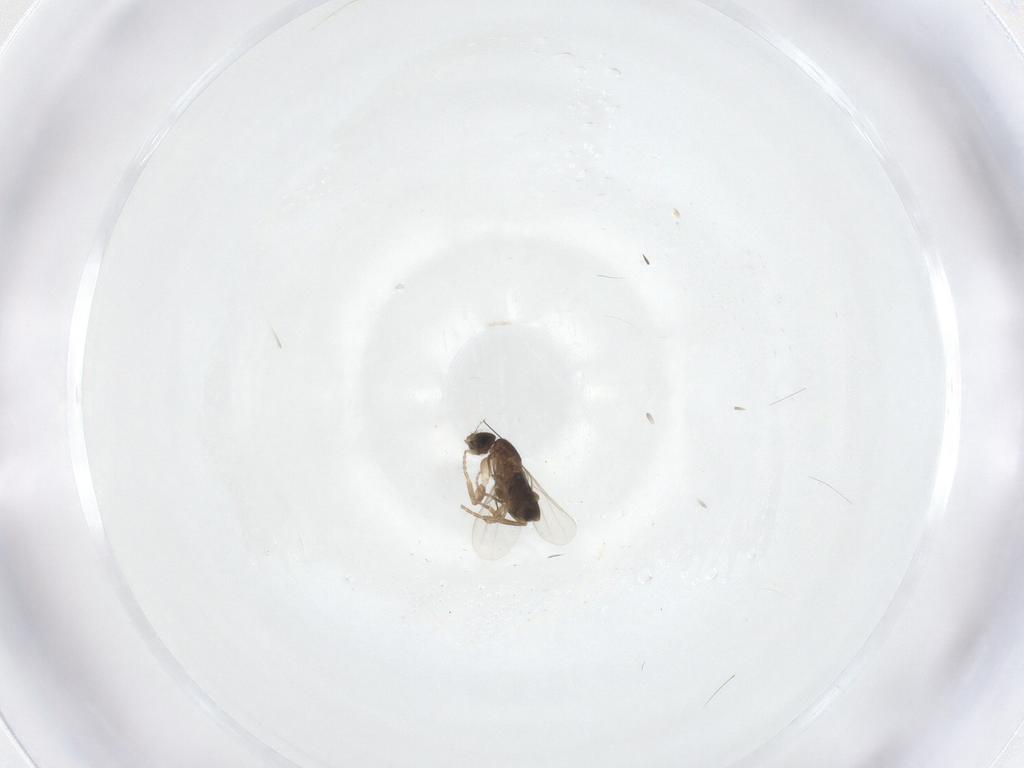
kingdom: Animalia
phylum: Arthropoda
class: Insecta
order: Diptera
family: Phoridae
